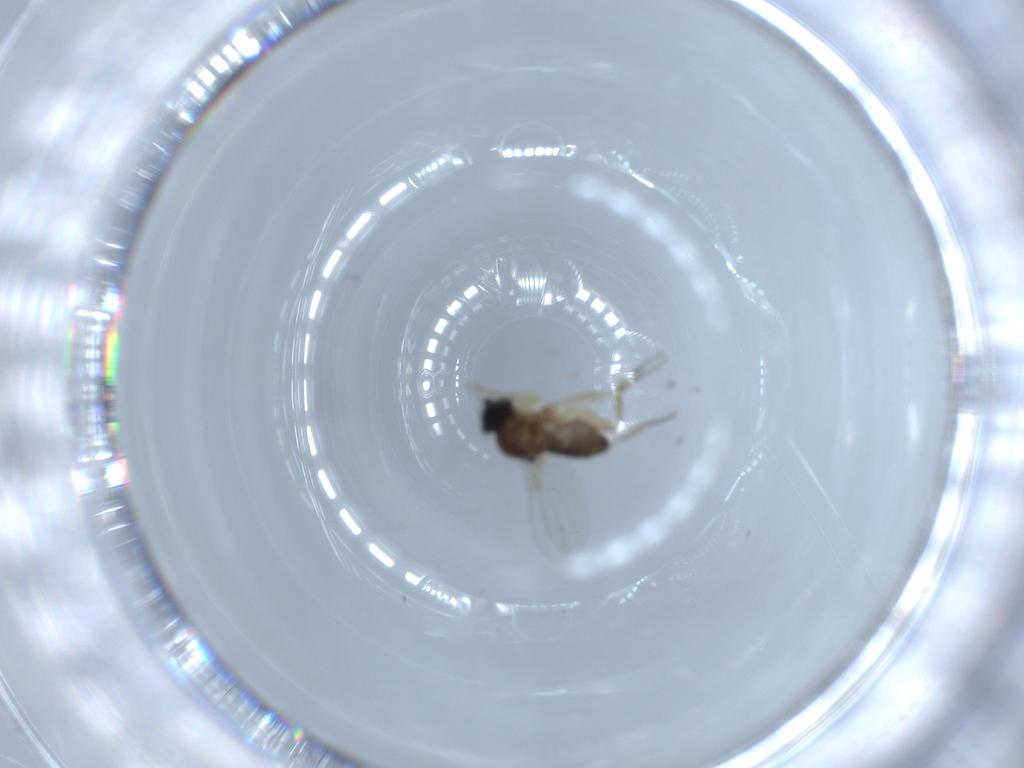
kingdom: Animalia
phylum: Arthropoda
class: Insecta
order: Diptera
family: Phoridae
